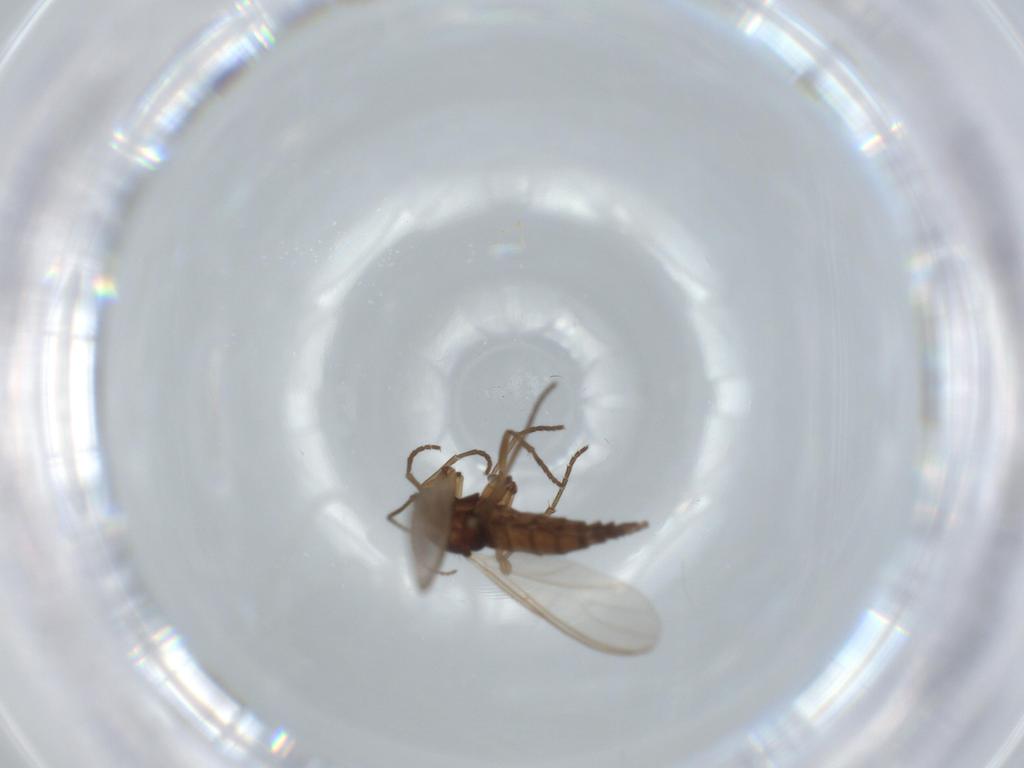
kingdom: Animalia
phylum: Arthropoda
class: Insecta
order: Diptera
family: Sciaridae
